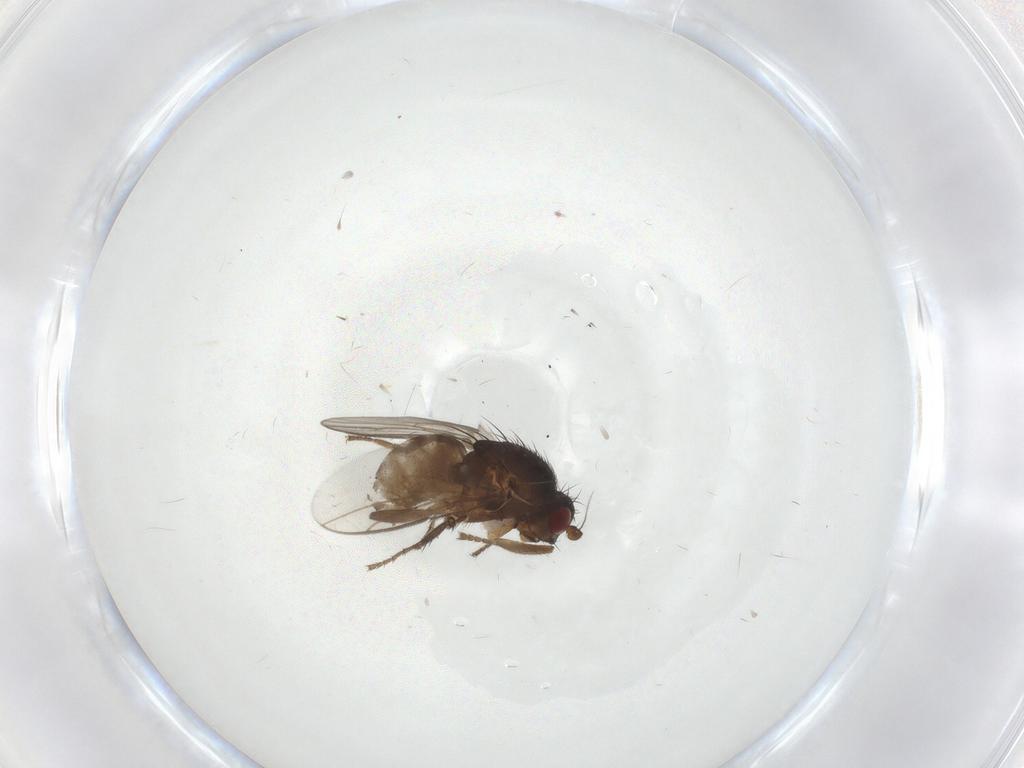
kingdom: Animalia
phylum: Arthropoda
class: Insecta
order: Diptera
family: Sphaeroceridae
